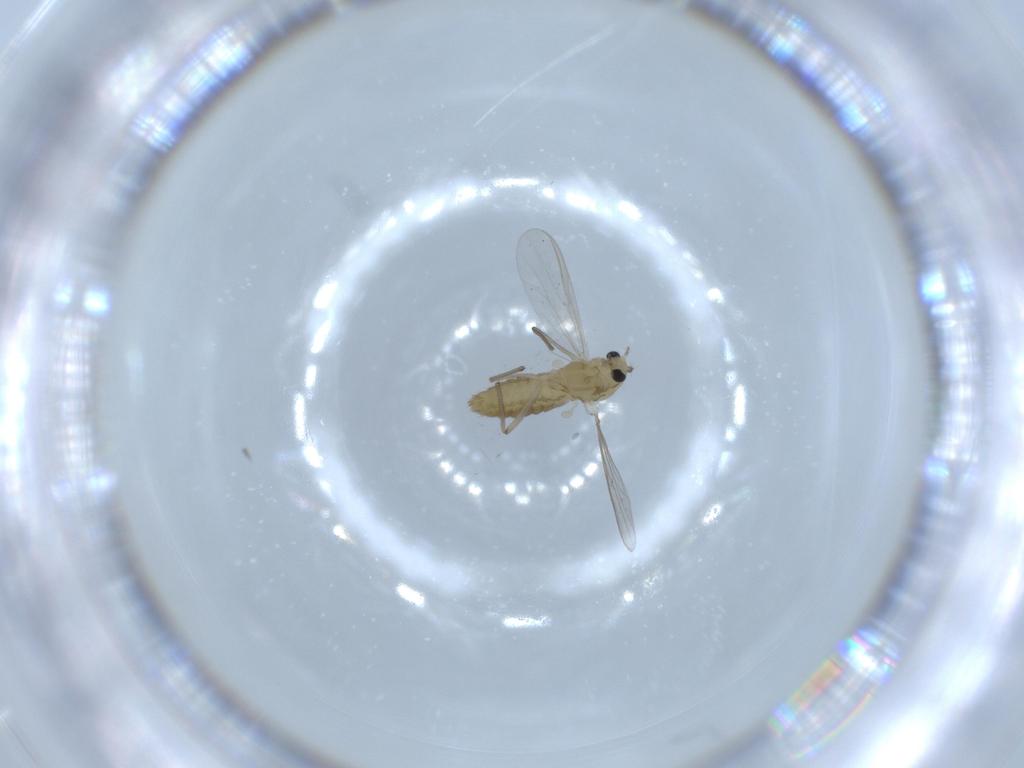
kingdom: Animalia
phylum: Arthropoda
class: Insecta
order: Diptera
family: Chironomidae
